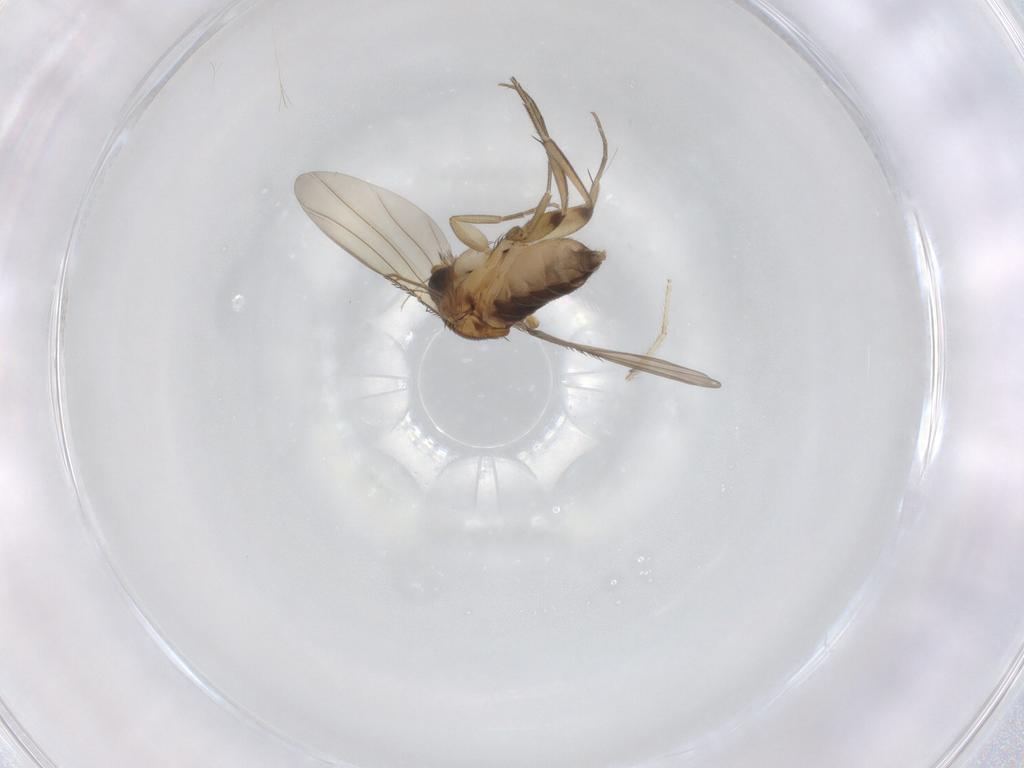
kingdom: Animalia
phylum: Arthropoda
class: Insecta
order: Diptera
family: Phoridae
